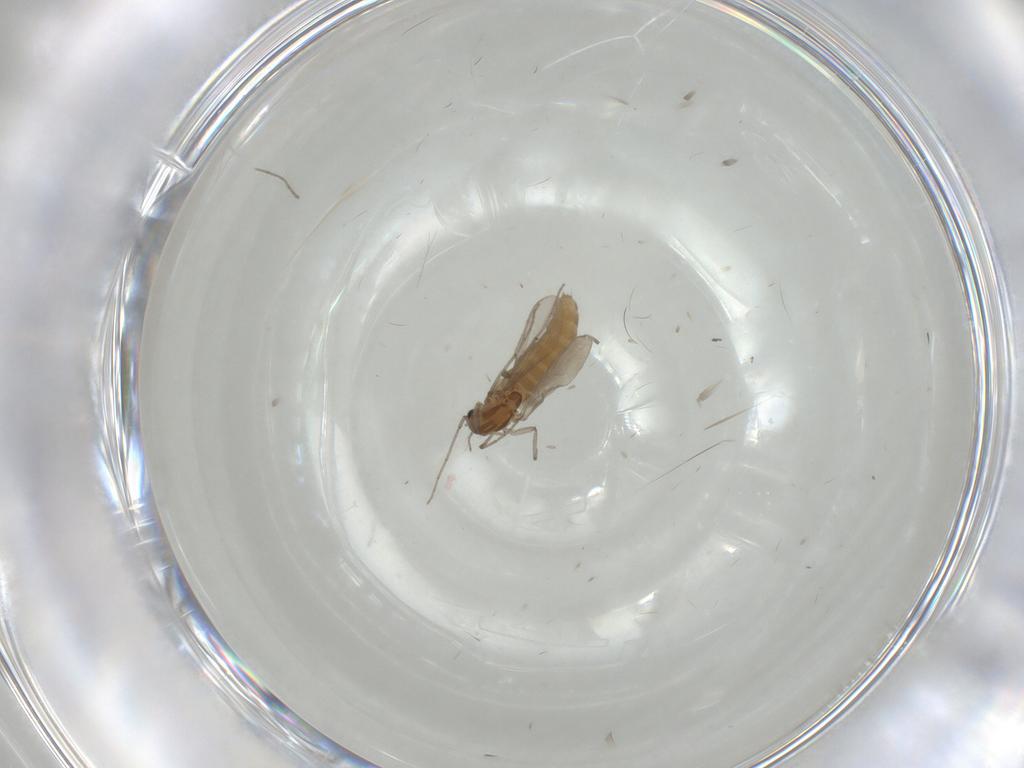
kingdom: Animalia
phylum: Arthropoda
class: Insecta
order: Diptera
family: Chironomidae
